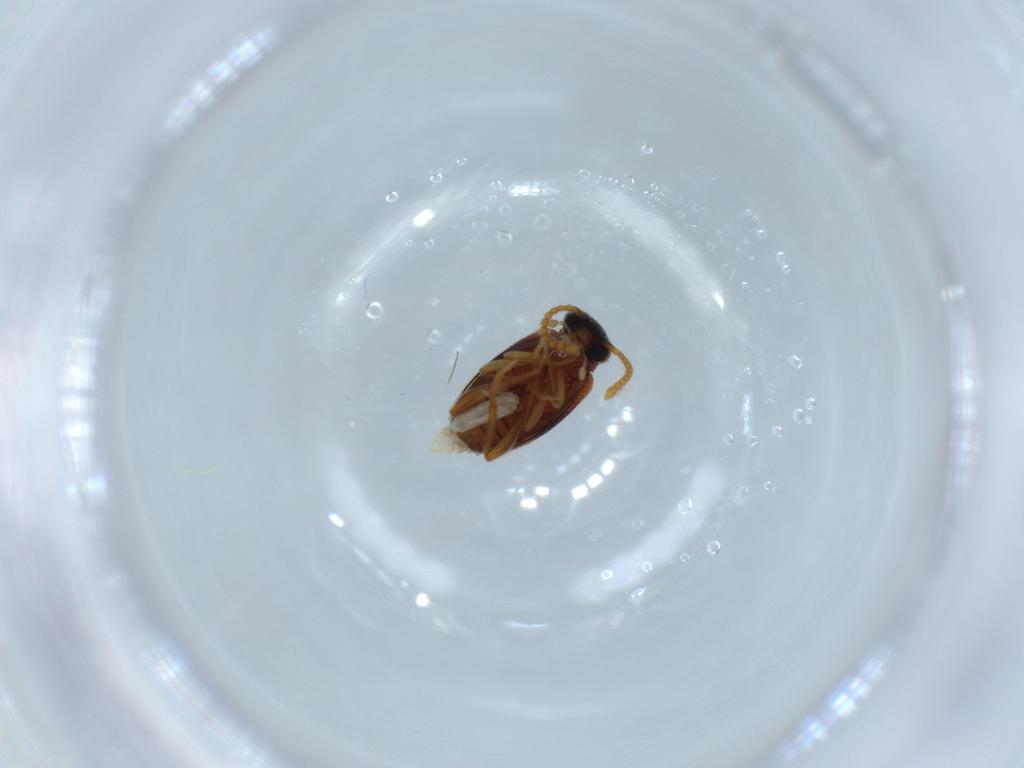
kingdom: Animalia
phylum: Arthropoda
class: Insecta
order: Coleoptera
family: Aderidae
